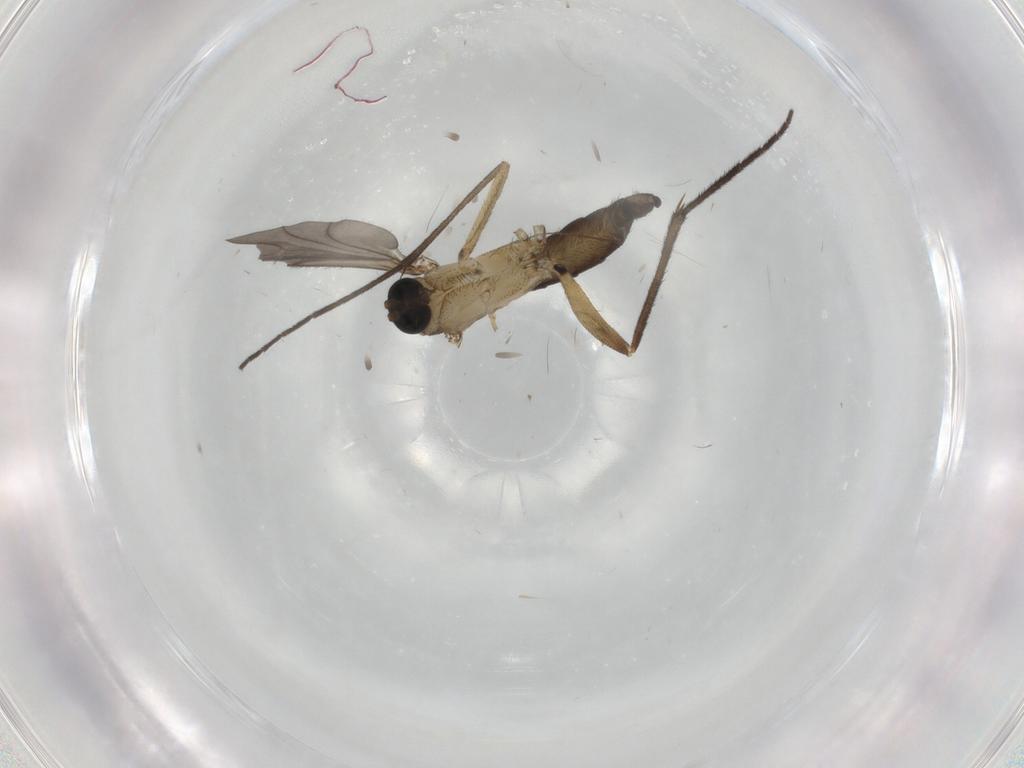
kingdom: Animalia
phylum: Arthropoda
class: Insecta
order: Diptera
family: Sciaridae
